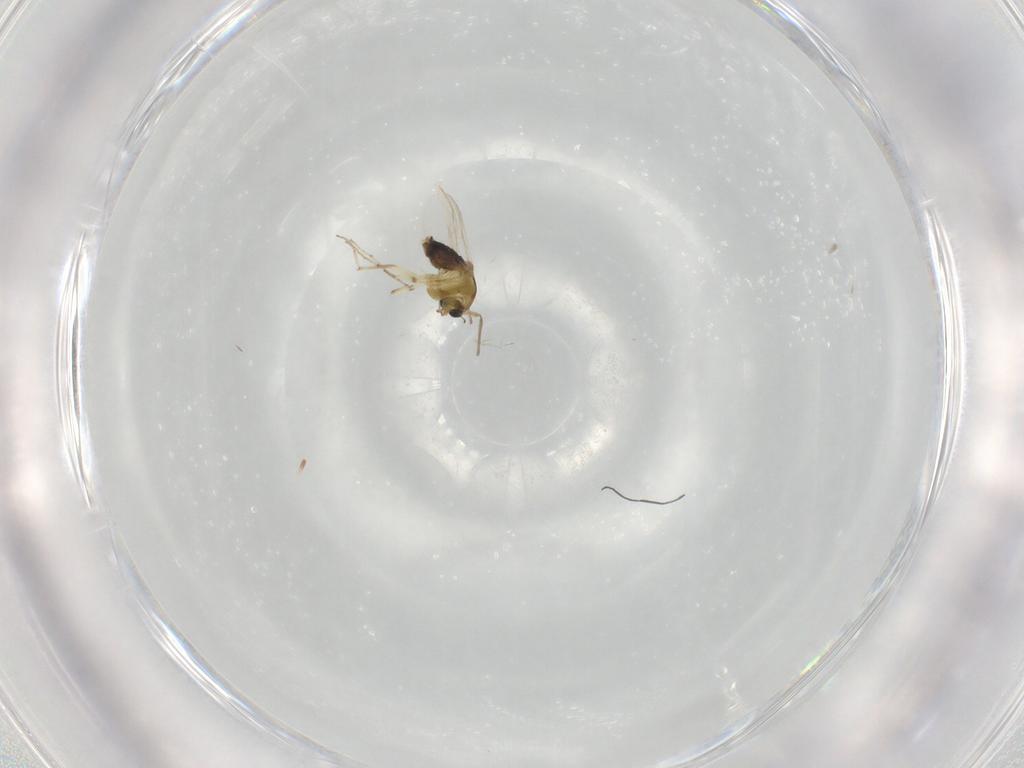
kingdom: Animalia
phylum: Arthropoda
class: Insecta
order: Diptera
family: Chironomidae
